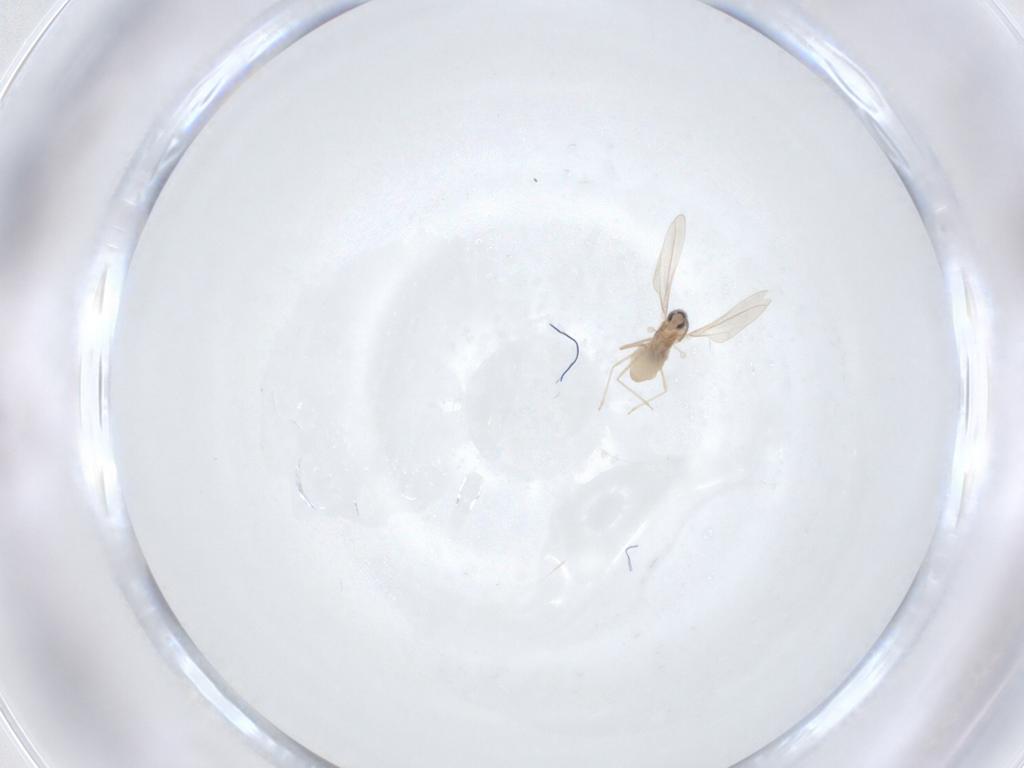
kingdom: Animalia
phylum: Arthropoda
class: Insecta
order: Diptera
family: Cecidomyiidae
